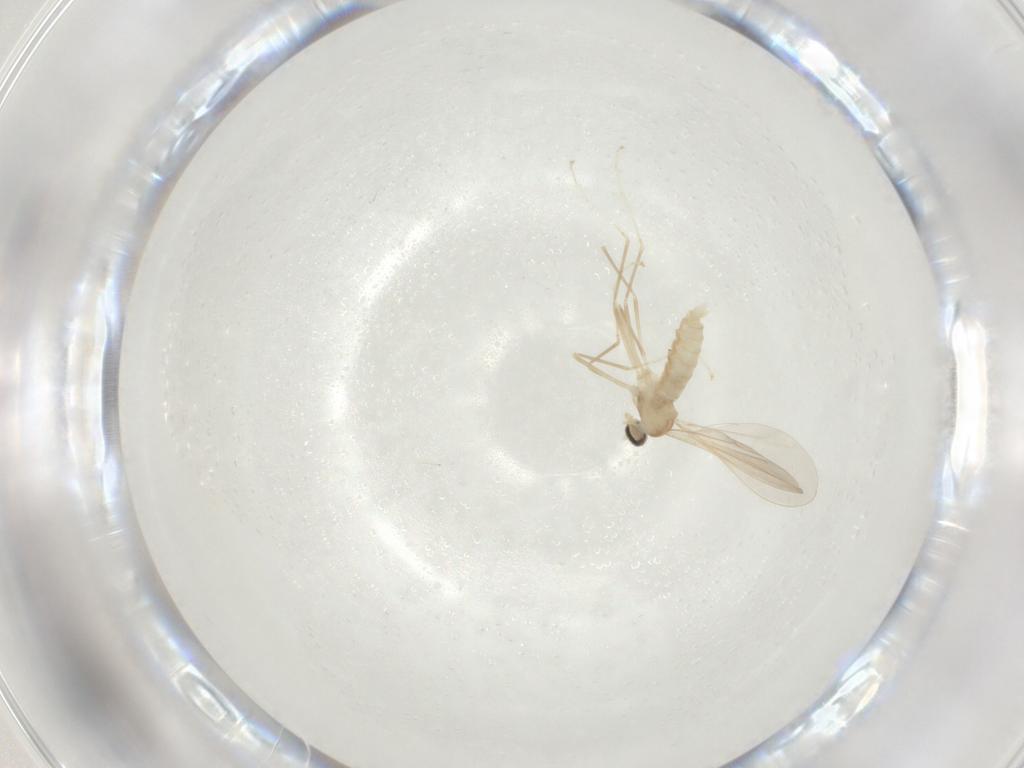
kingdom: Animalia
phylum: Arthropoda
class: Insecta
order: Diptera
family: Cecidomyiidae
